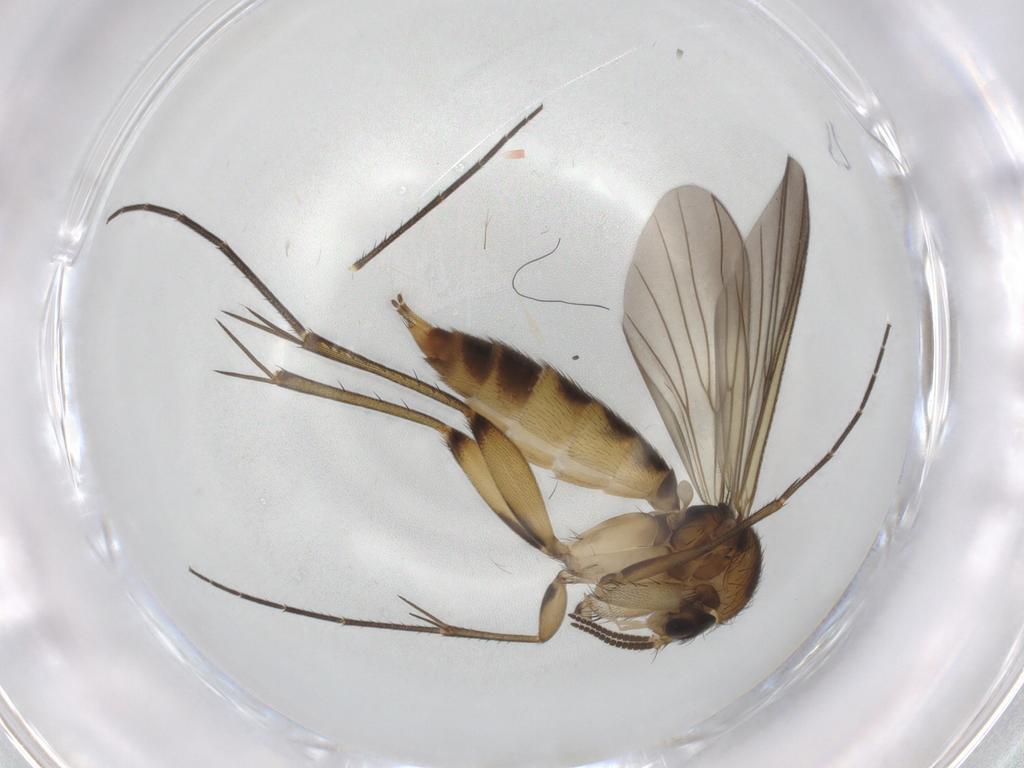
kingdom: Animalia
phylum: Arthropoda
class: Insecta
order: Diptera
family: Mycetophilidae
